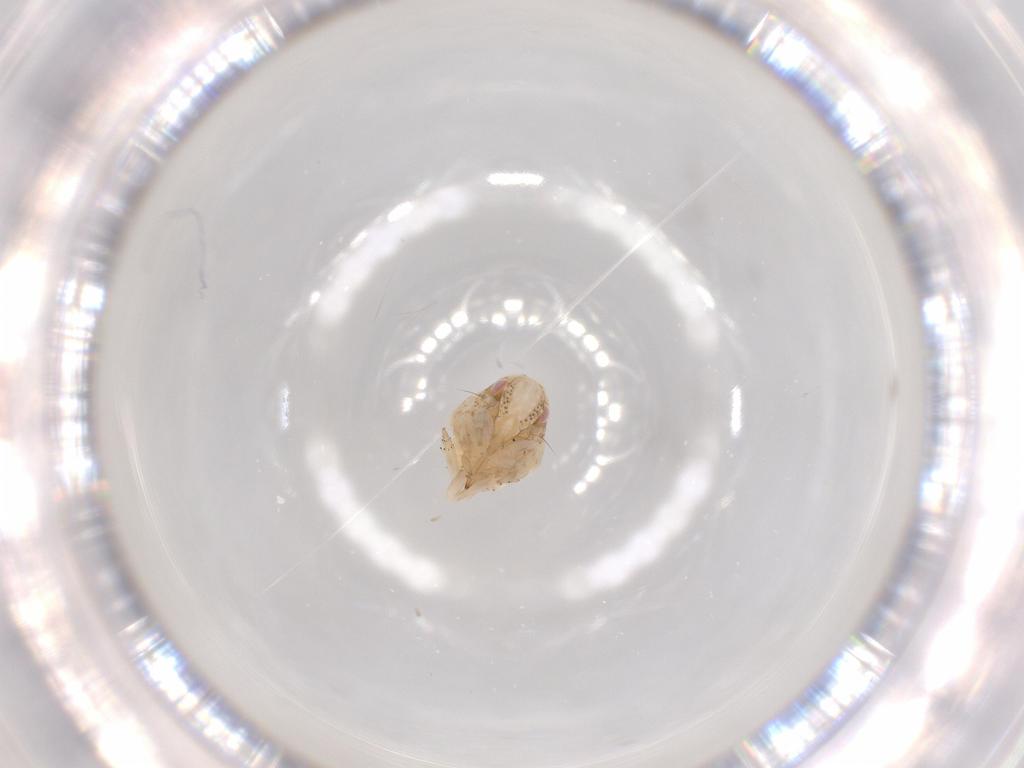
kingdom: Animalia
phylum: Arthropoda
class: Insecta
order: Hemiptera
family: Acanaloniidae
